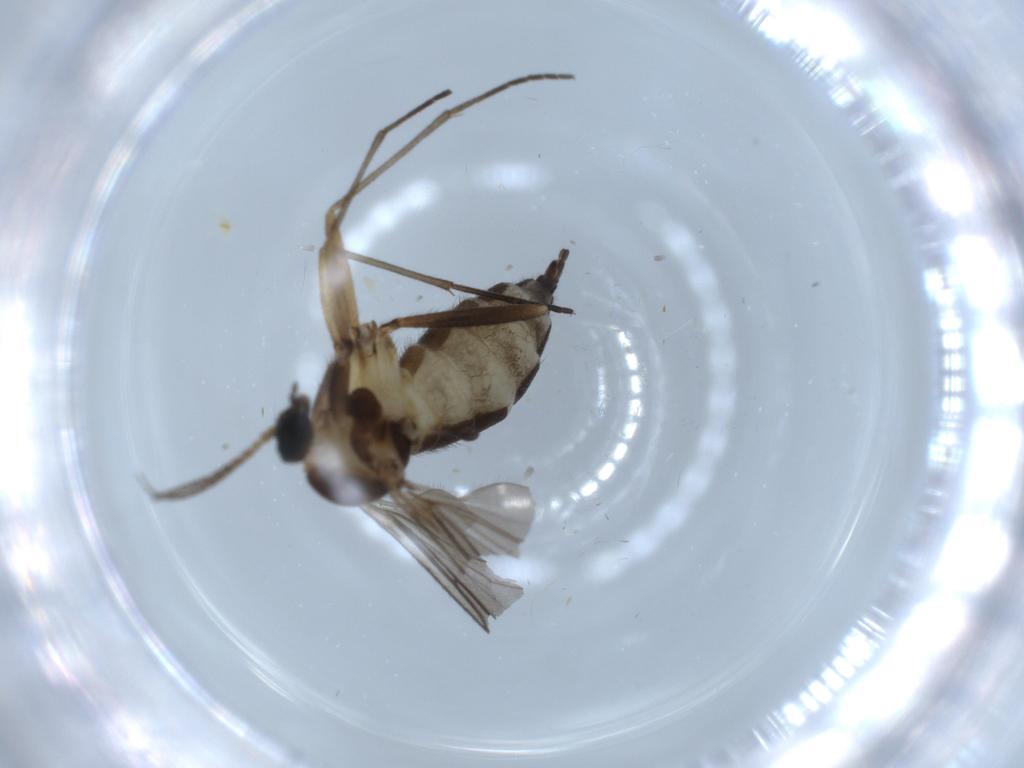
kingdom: Animalia
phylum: Arthropoda
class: Insecta
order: Diptera
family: Sciaridae
